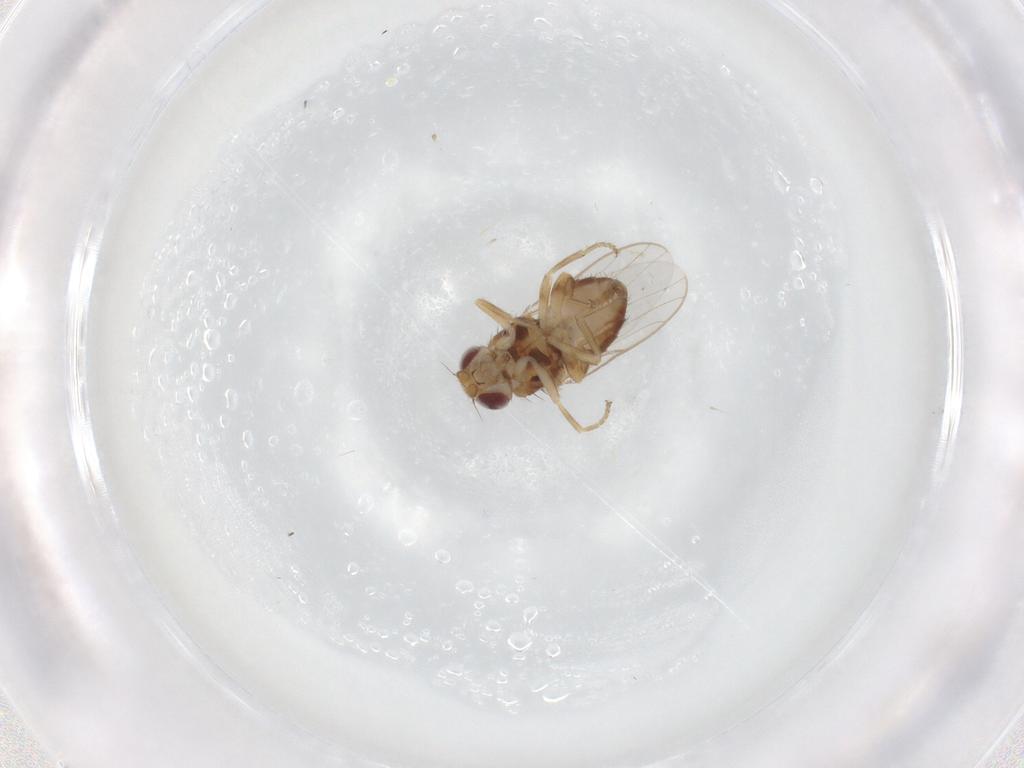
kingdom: Animalia
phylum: Arthropoda
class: Insecta
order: Diptera
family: Chloropidae
